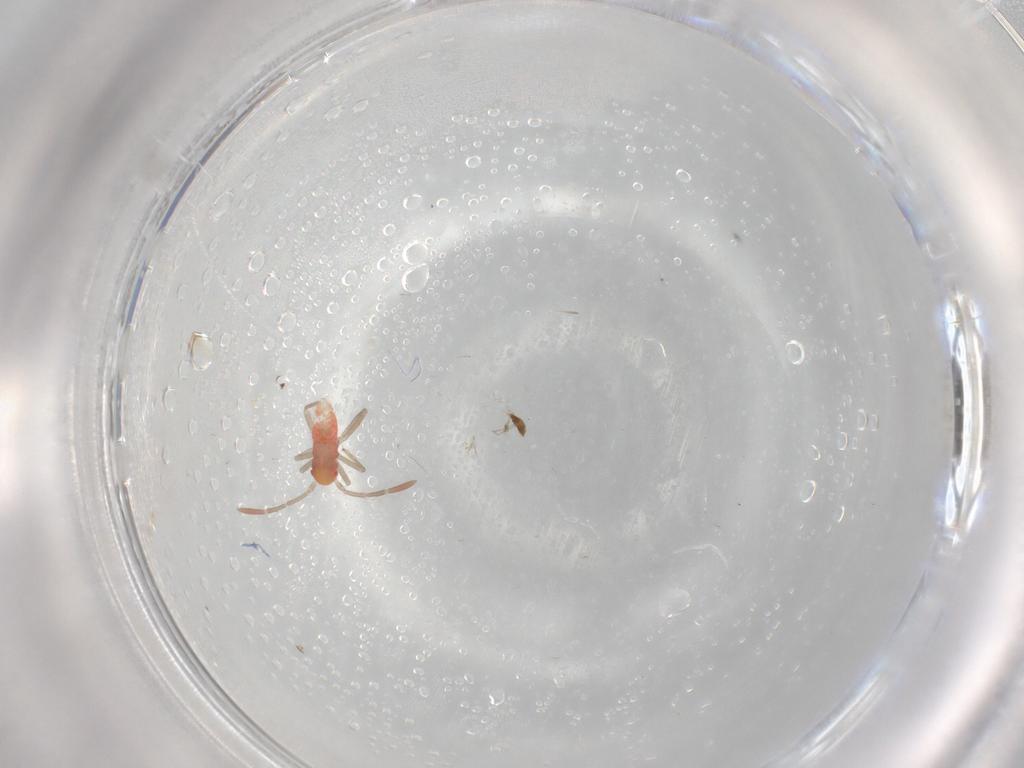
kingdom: Animalia
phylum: Arthropoda
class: Insecta
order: Hemiptera
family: Miridae
